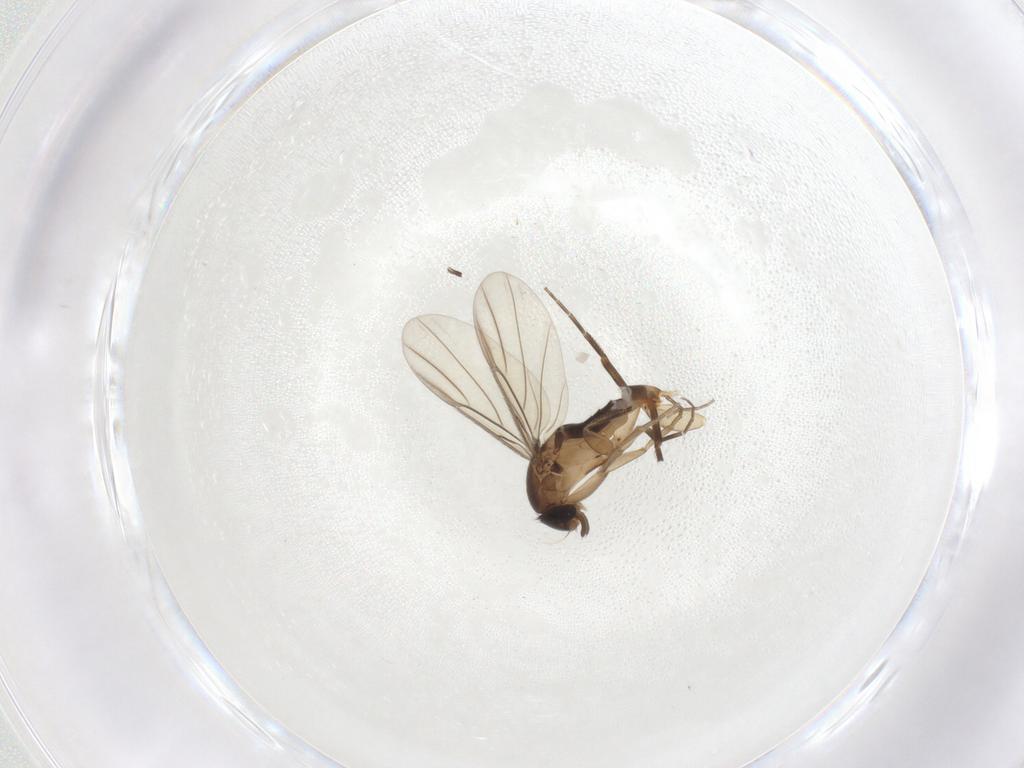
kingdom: Animalia
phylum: Arthropoda
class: Insecta
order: Diptera
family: Phoridae
